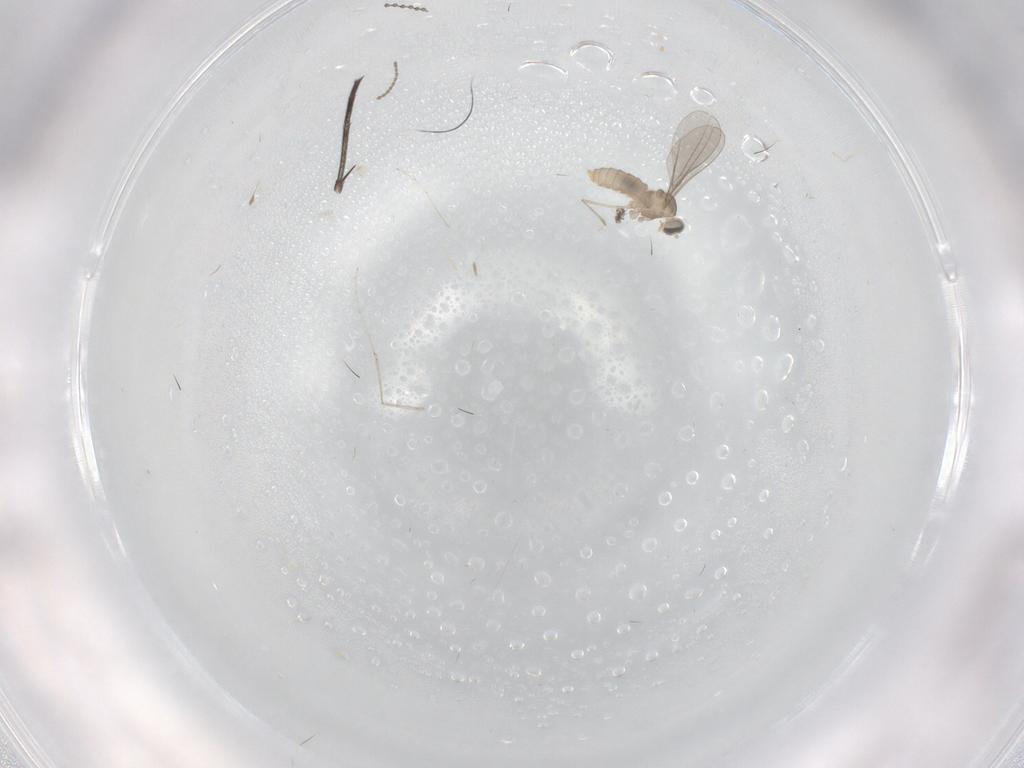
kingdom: Animalia
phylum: Arthropoda
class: Insecta
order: Diptera
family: Keroplatidae
